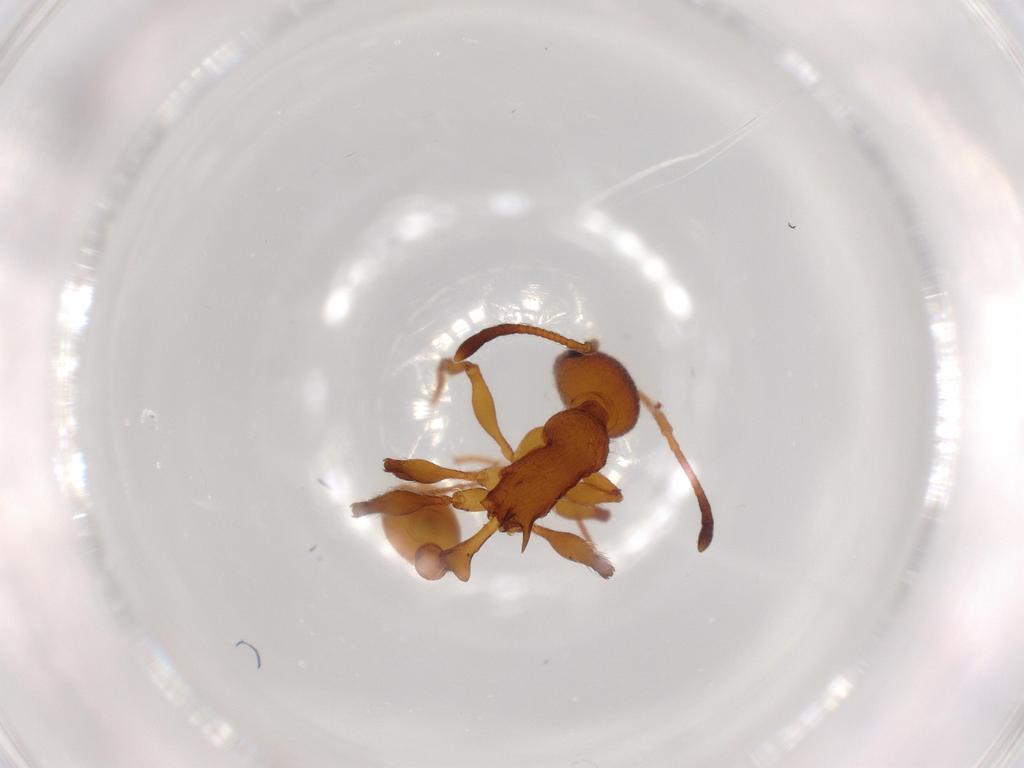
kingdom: Animalia
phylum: Arthropoda
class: Insecta
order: Hymenoptera
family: Formicidae
